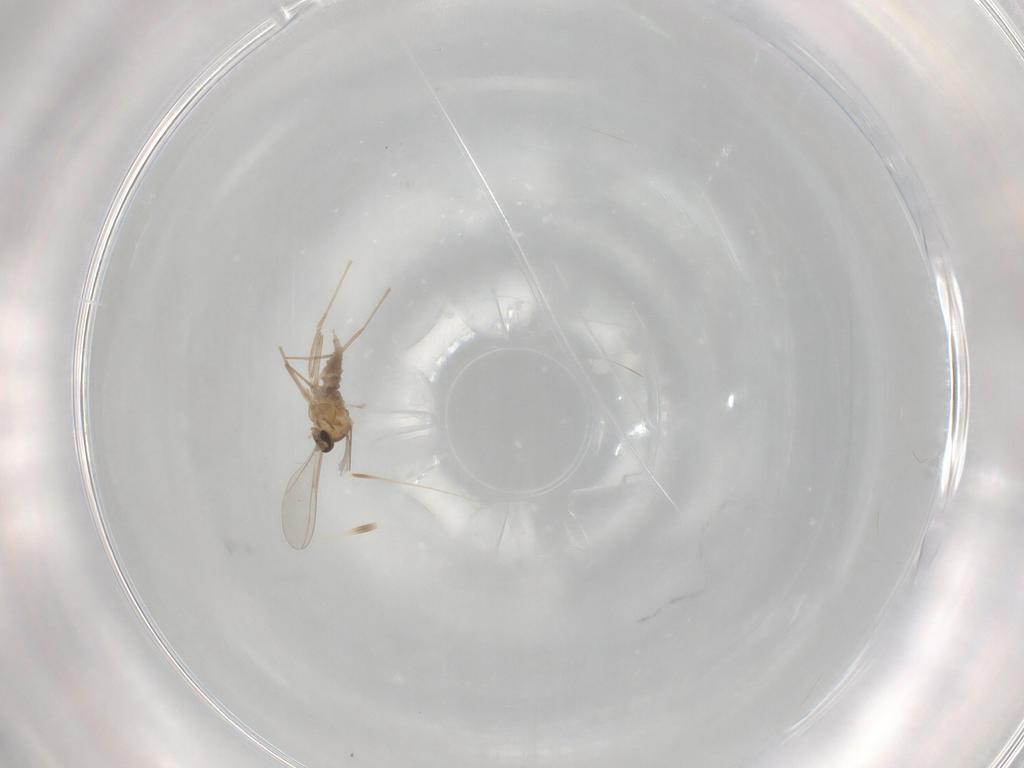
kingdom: Animalia
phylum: Arthropoda
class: Insecta
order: Diptera
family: Cecidomyiidae
